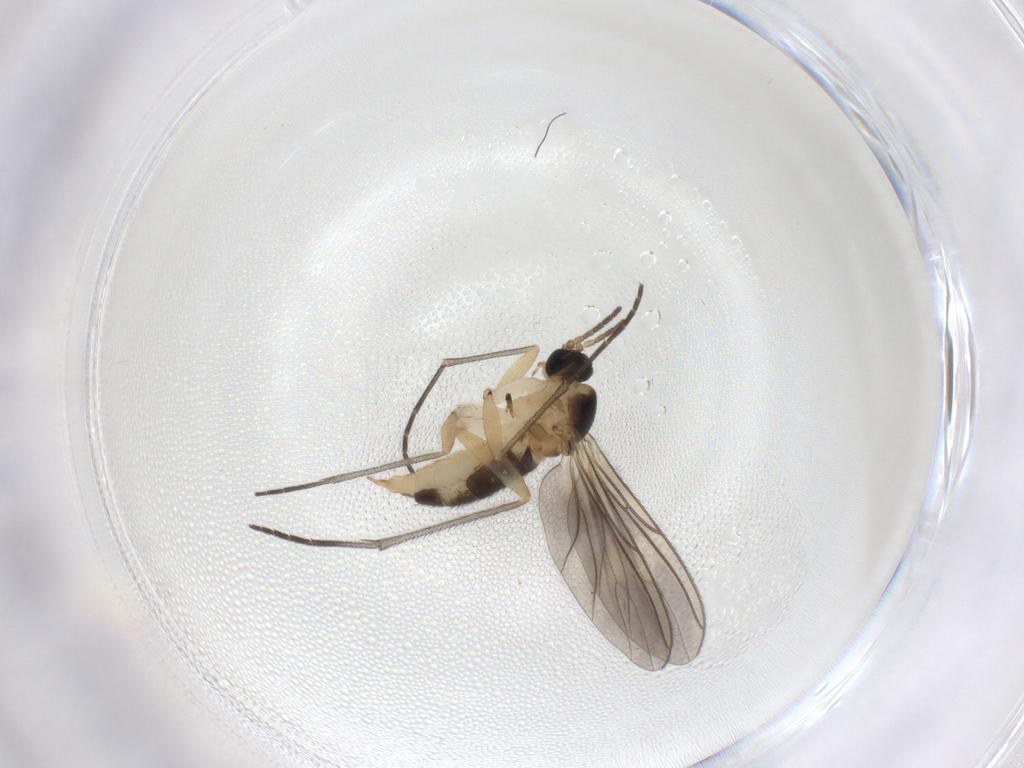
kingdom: Animalia
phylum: Arthropoda
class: Insecta
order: Diptera
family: Sciaridae
